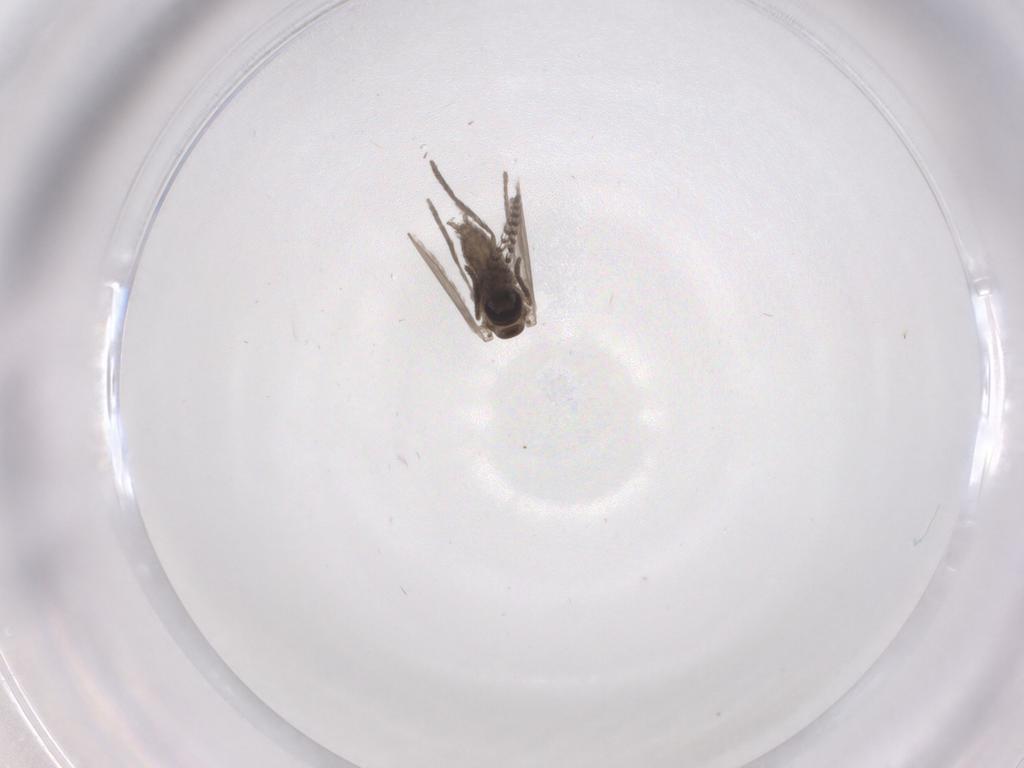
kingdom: Animalia
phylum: Arthropoda
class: Insecta
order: Diptera
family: Psychodidae
